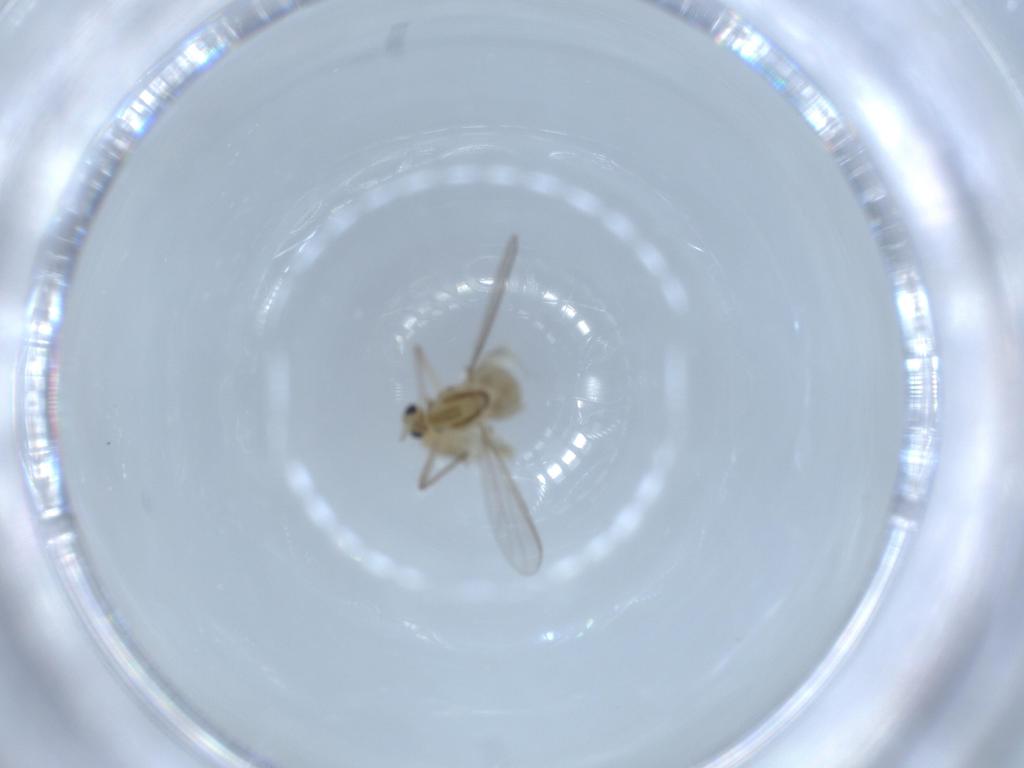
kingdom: Animalia
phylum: Arthropoda
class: Insecta
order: Diptera
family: Chironomidae
